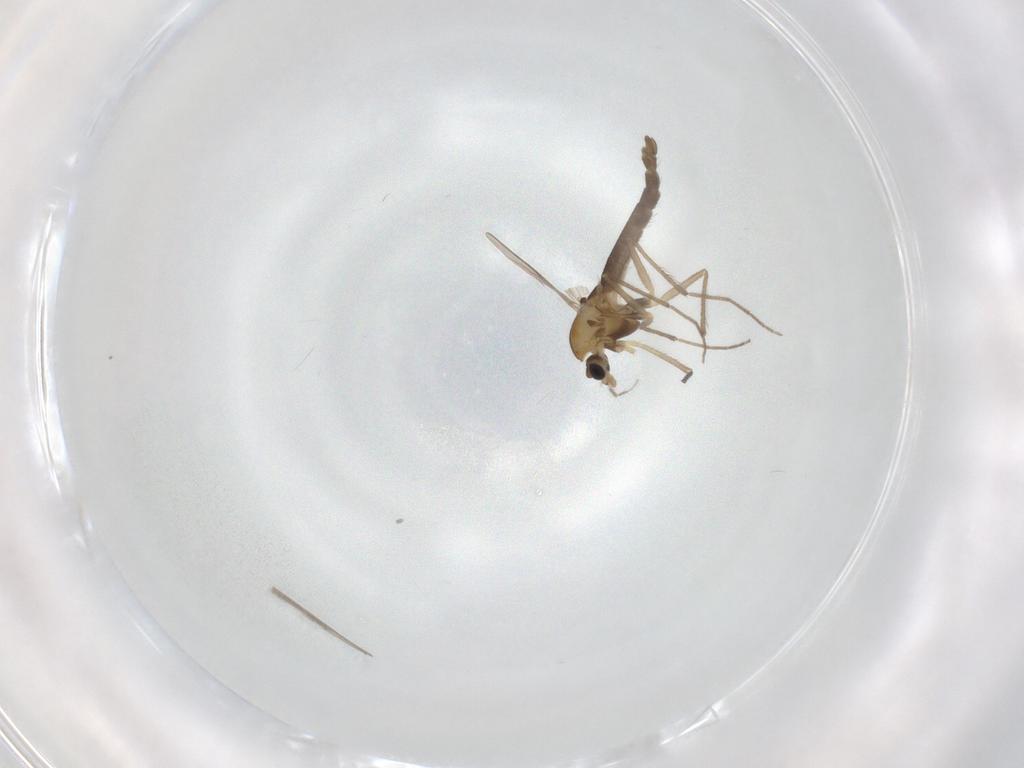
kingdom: Animalia
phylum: Arthropoda
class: Insecta
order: Diptera
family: Chironomidae
